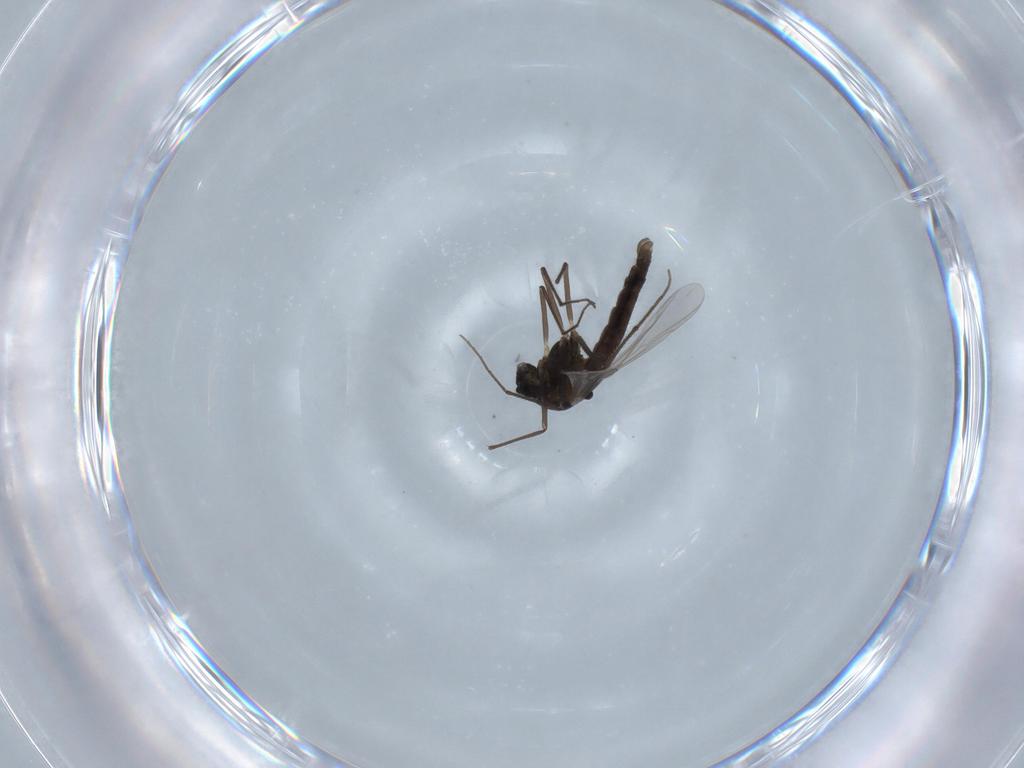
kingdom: Animalia
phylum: Arthropoda
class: Insecta
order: Diptera
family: Chironomidae
